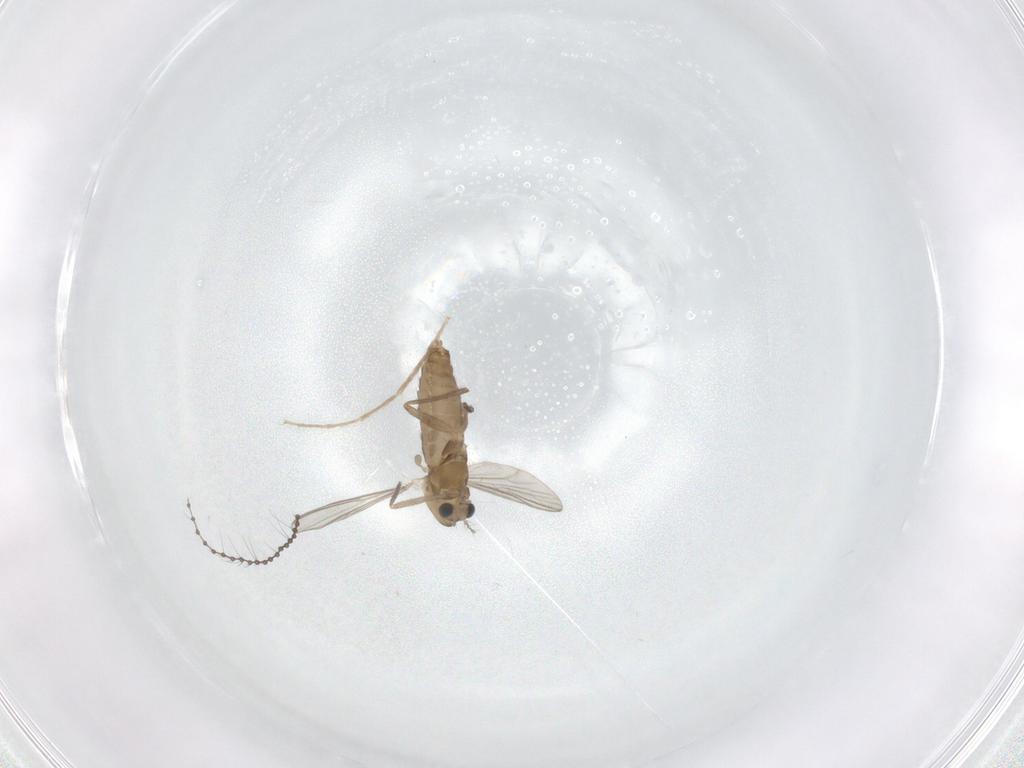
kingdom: Animalia
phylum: Arthropoda
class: Insecta
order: Diptera
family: Chironomidae
